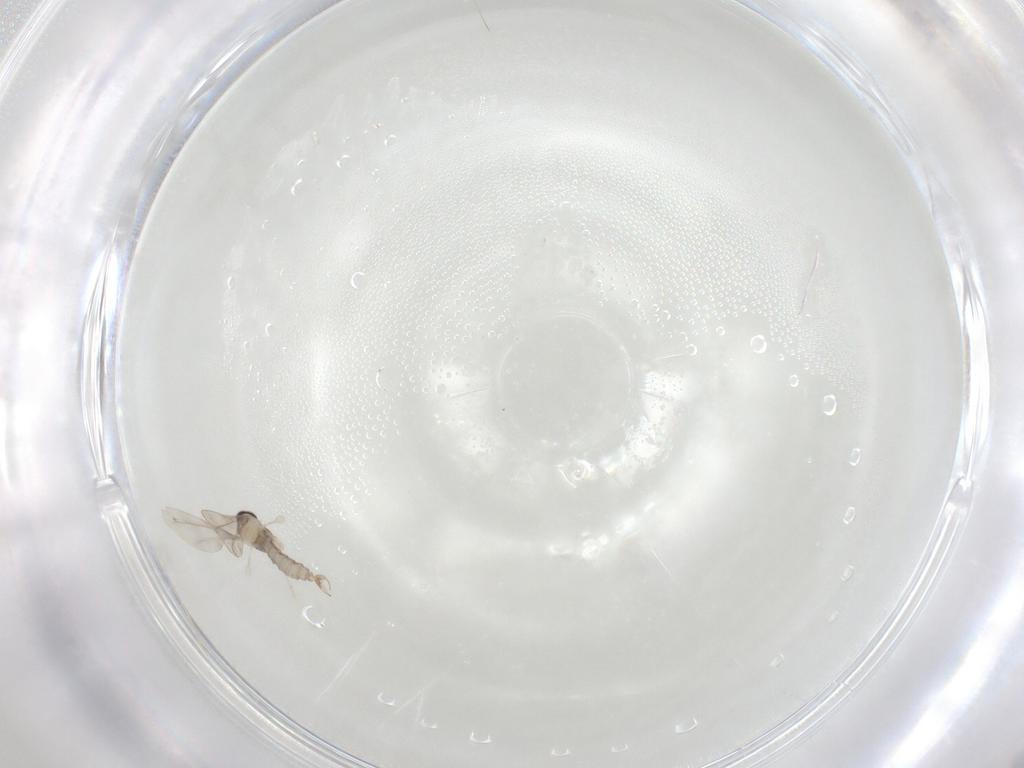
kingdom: Animalia
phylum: Arthropoda
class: Insecta
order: Diptera
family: Cecidomyiidae
